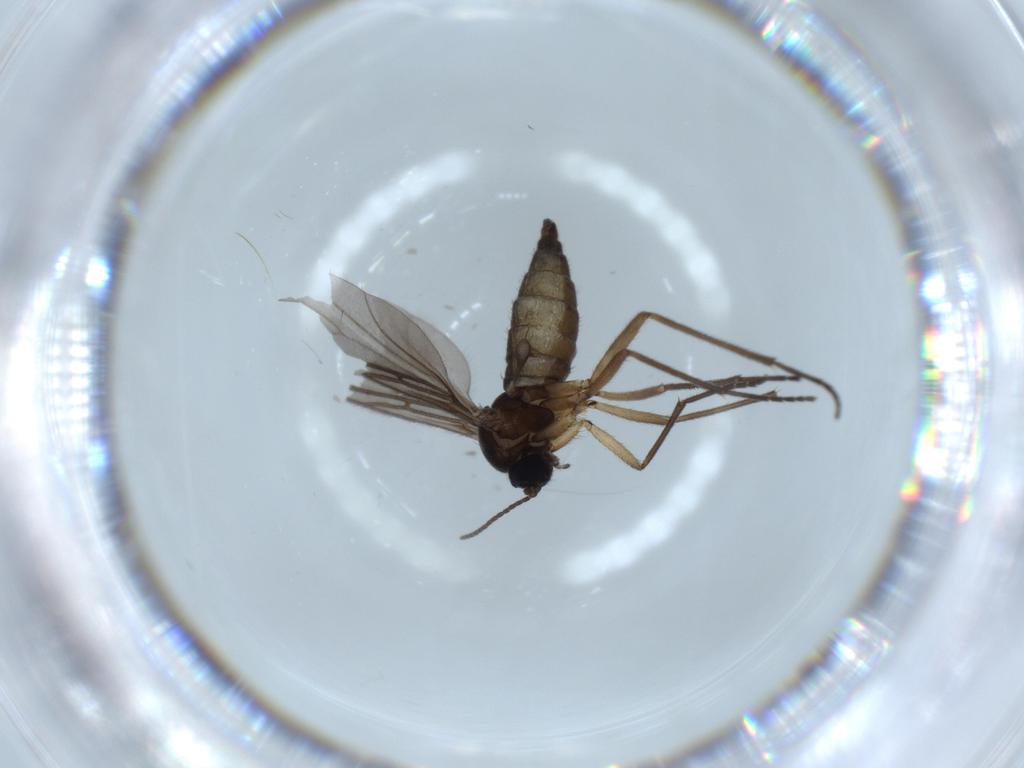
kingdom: Animalia
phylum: Arthropoda
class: Insecta
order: Diptera
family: Sciaridae
